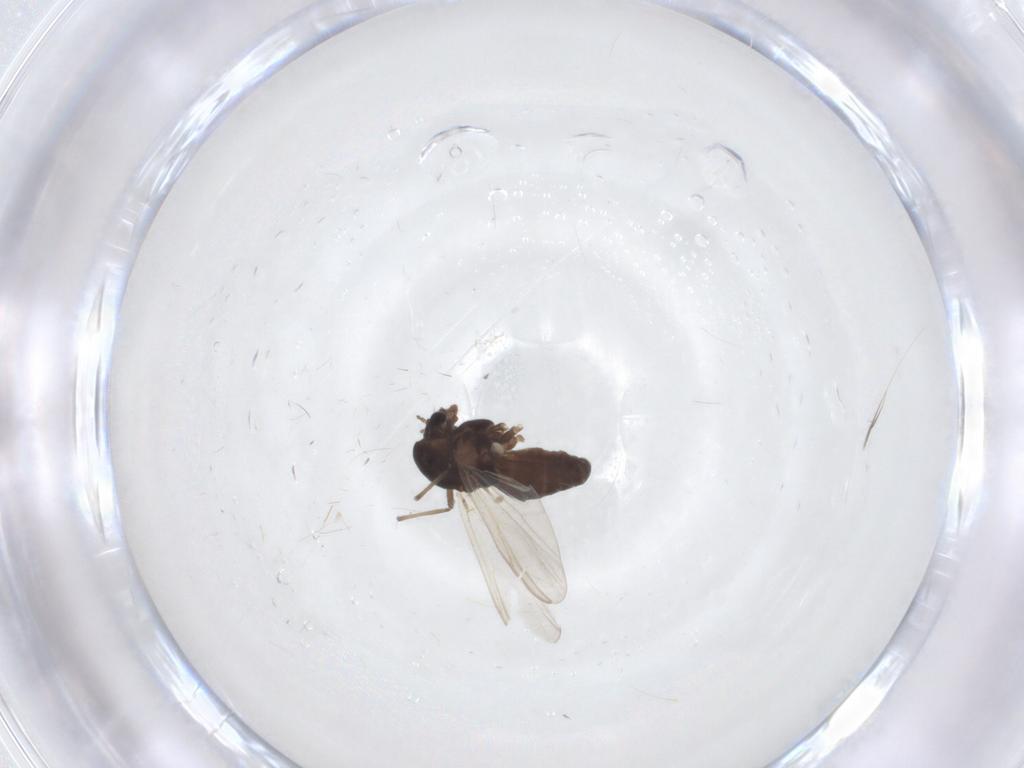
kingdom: Animalia
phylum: Arthropoda
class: Insecta
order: Diptera
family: Chironomidae
